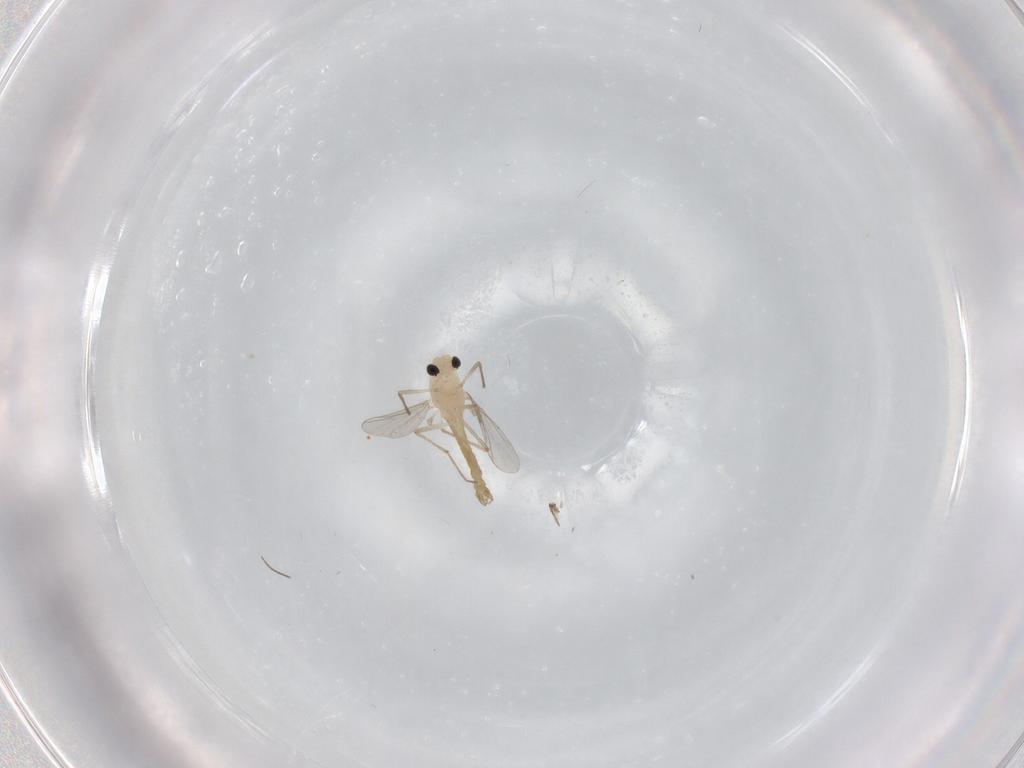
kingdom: Animalia
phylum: Arthropoda
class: Insecta
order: Diptera
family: Chironomidae
